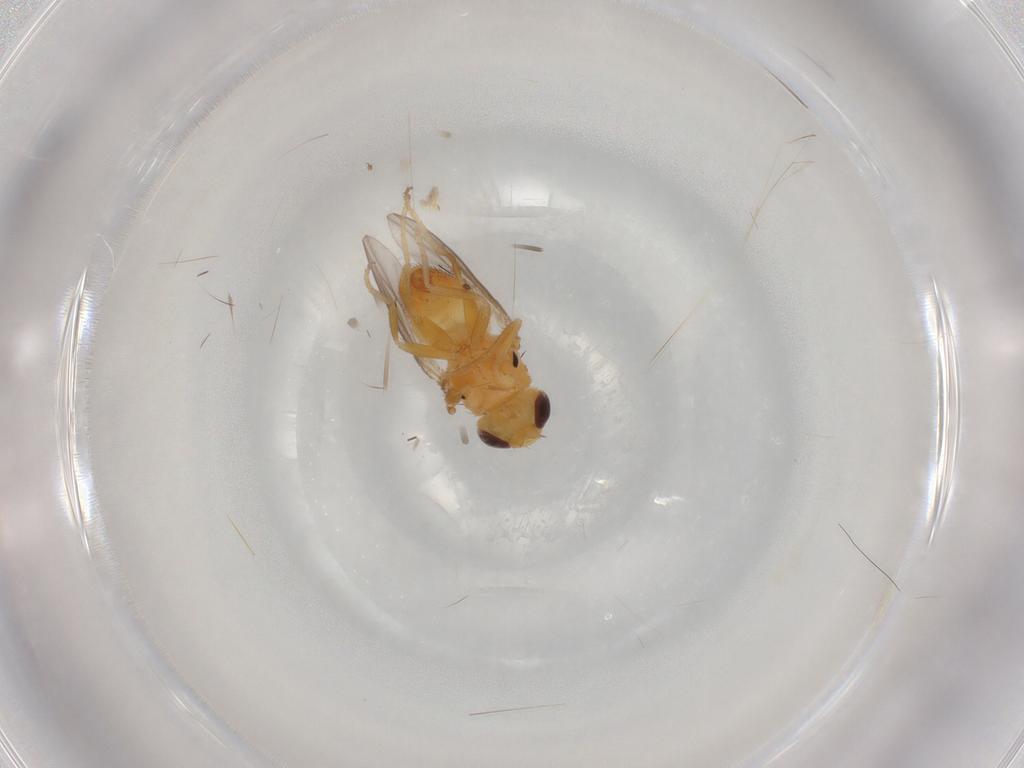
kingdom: Animalia
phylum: Arthropoda
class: Insecta
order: Diptera
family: Chloropidae
